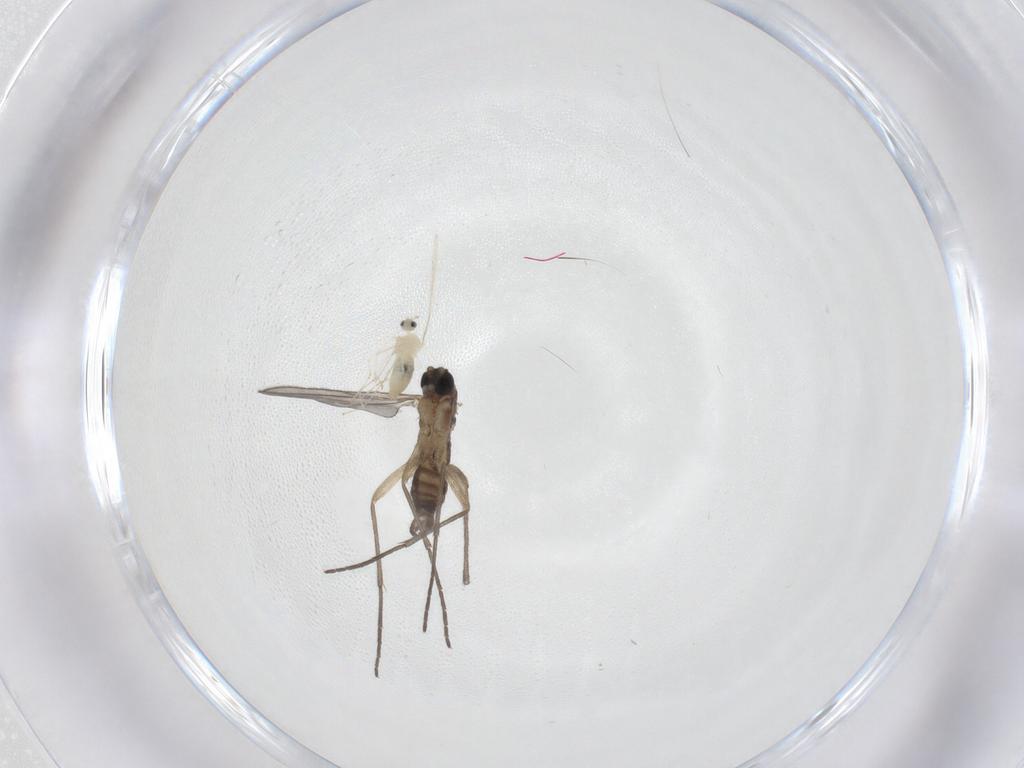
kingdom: Animalia
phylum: Arthropoda
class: Insecta
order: Diptera
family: Sciaridae
